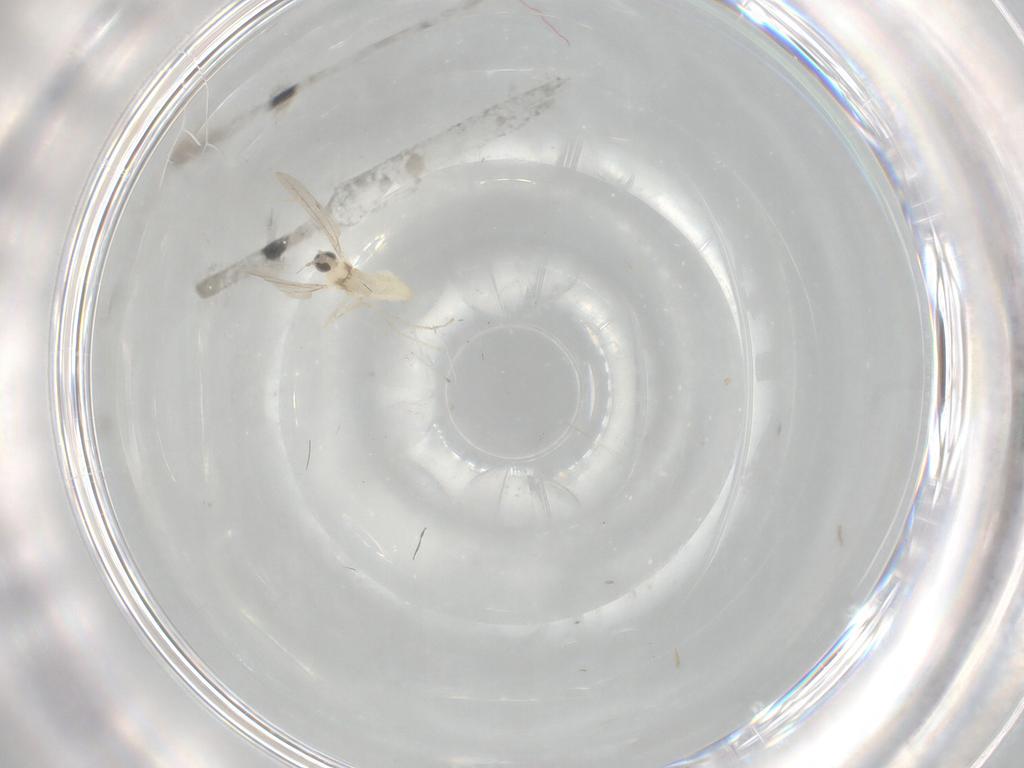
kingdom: Animalia
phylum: Arthropoda
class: Insecta
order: Diptera
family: Cecidomyiidae
